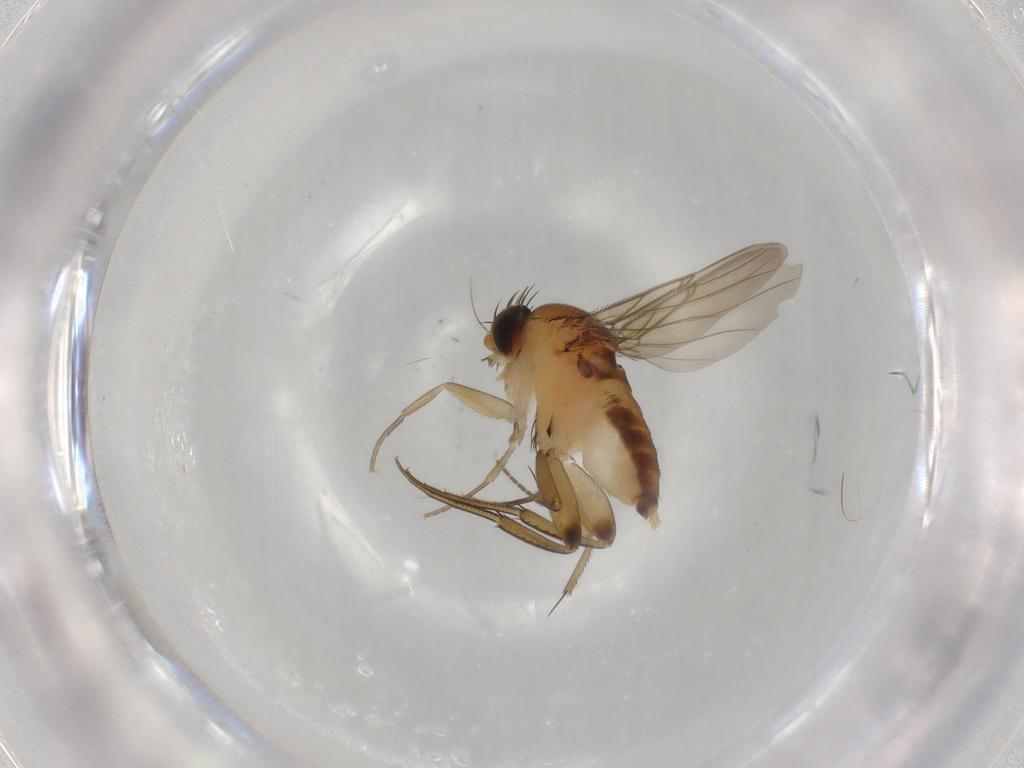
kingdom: Animalia
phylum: Arthropoda
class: Insecta
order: Diptera
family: Phoridae
